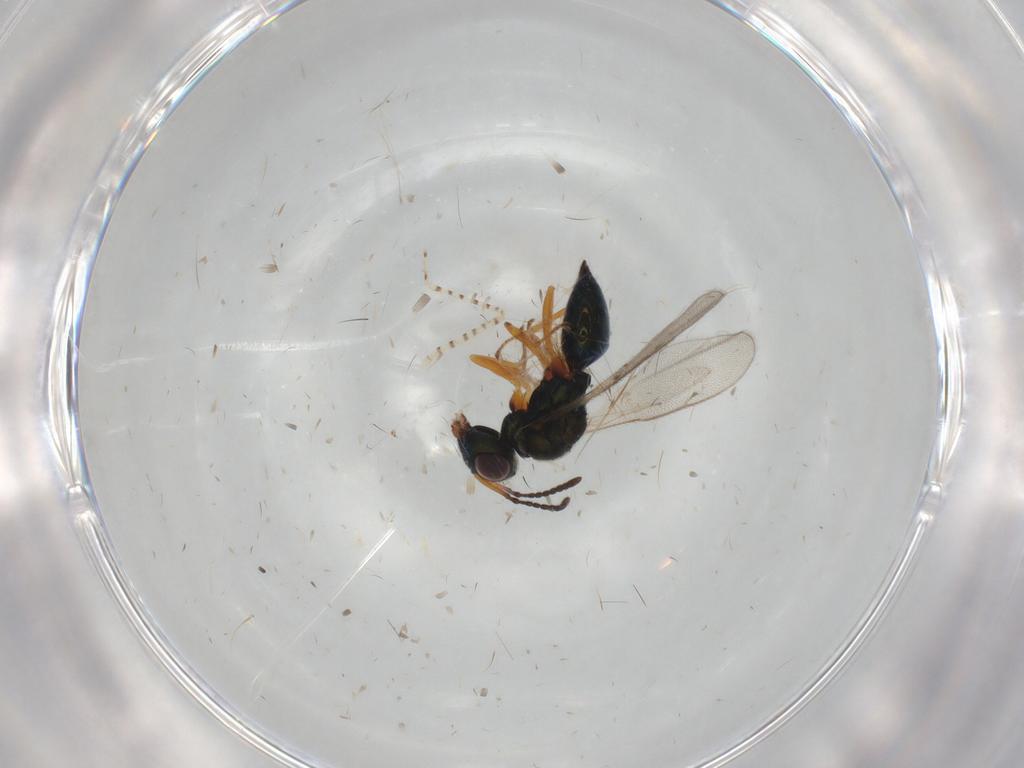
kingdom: Animalia
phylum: Arthropoda
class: Insecta
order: Hymenoptera
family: Pteromalidae
